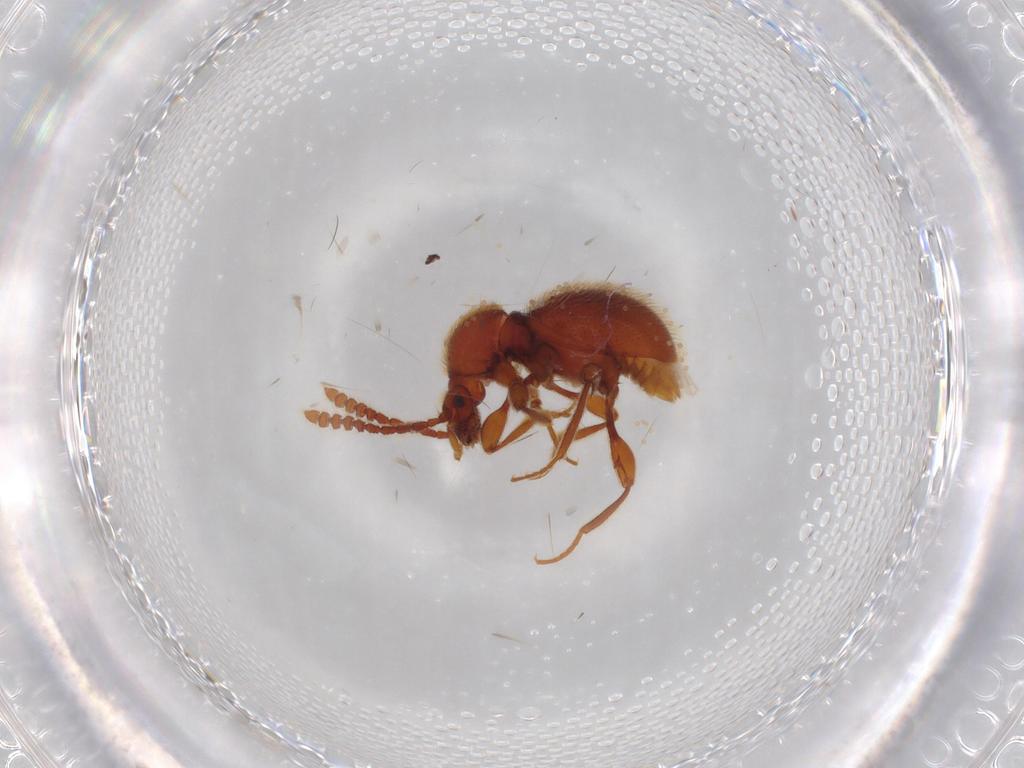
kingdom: Animalia
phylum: Arthropoda
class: Insecta
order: Coleoptera
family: Staphylinidae
